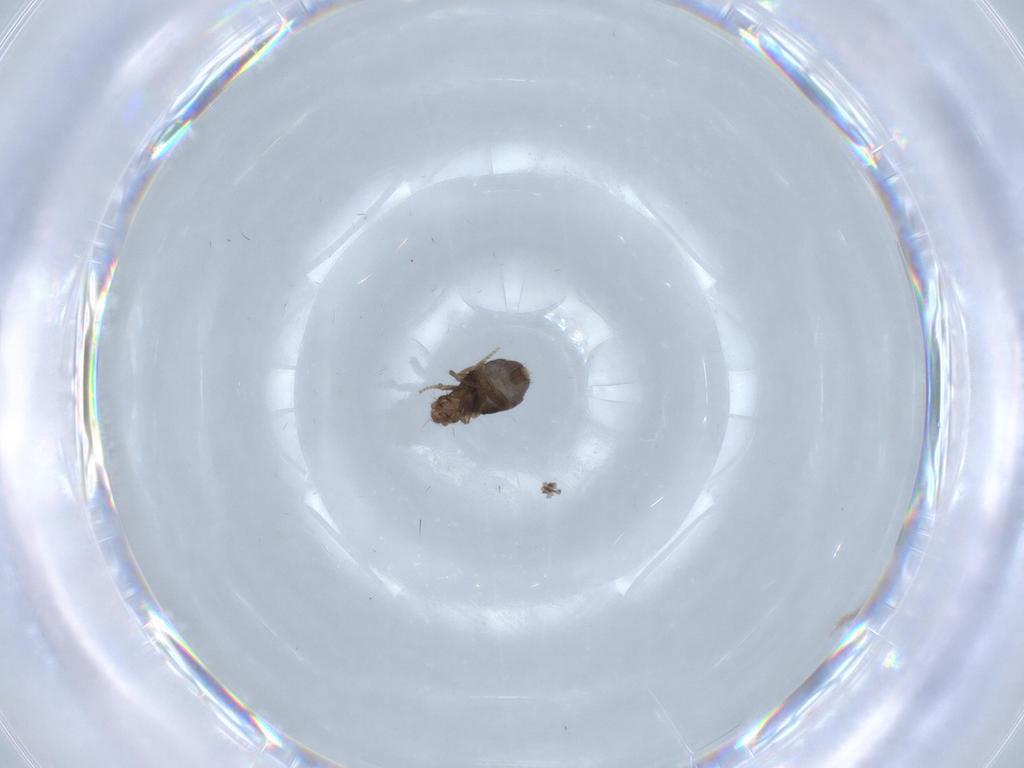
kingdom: Animalia
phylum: Arthropoda
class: Insecta
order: Diptera
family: Phoridae
